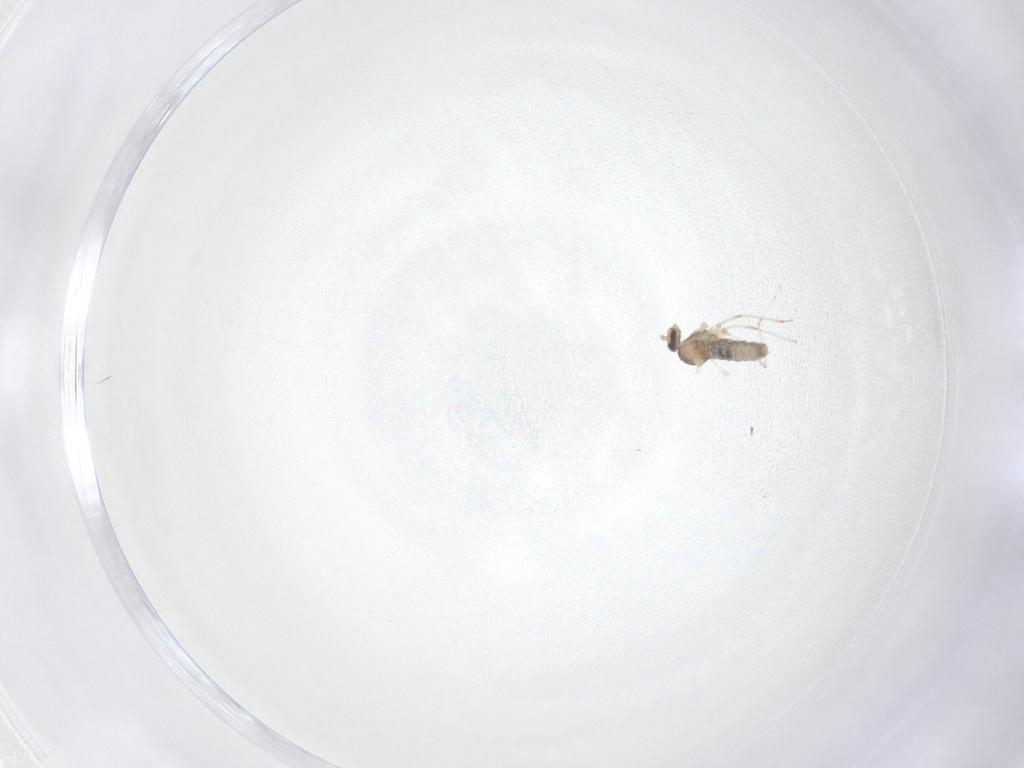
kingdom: Animalia
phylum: Arthropoda
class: Insecta
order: Diptera
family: Cecidomyiidae
